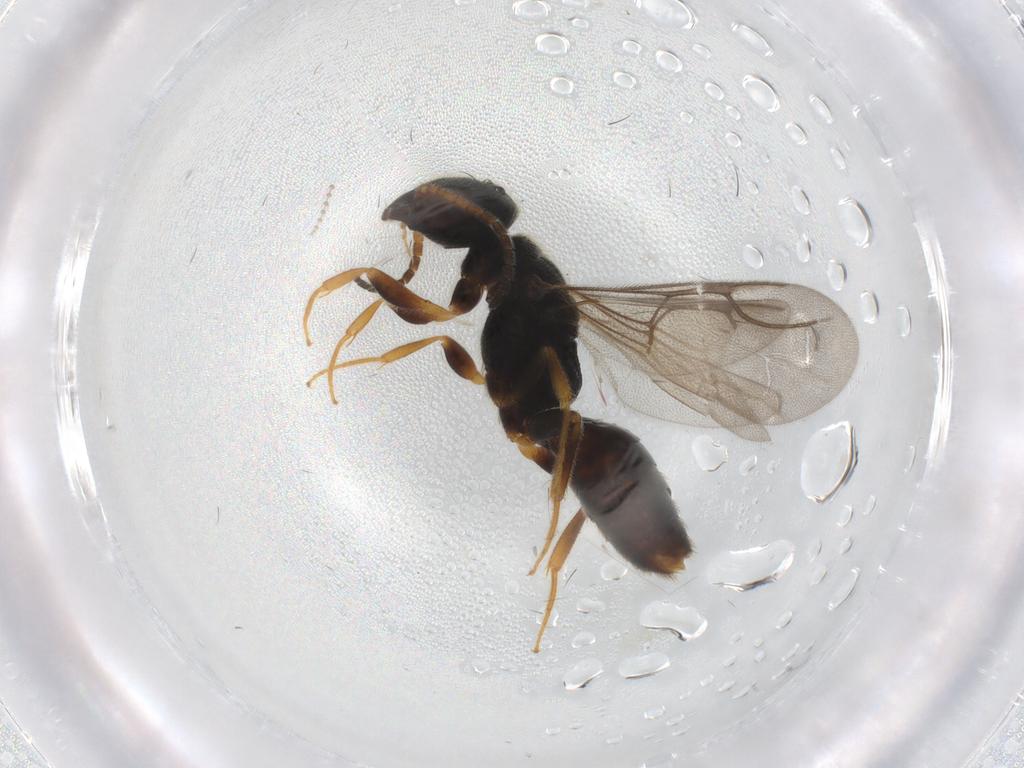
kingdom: Animalia
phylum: Arthropoda
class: Insecta
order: Hymenoptera
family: Bethylidae
